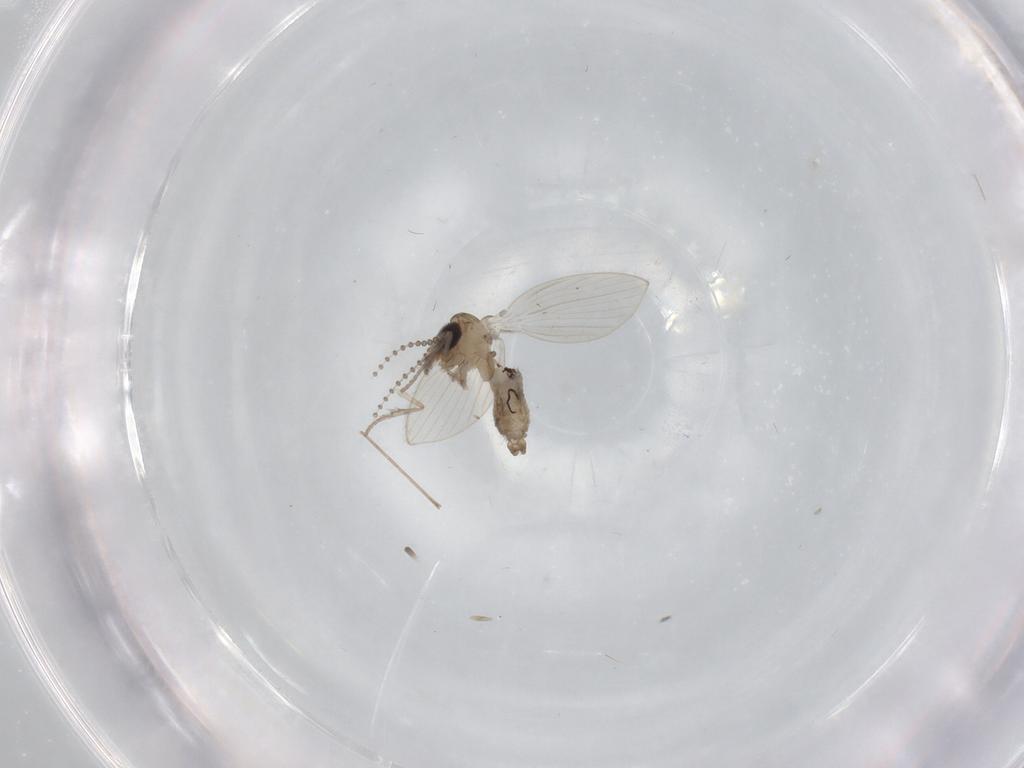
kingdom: Animalia
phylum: Arthropoda
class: Insecta
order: Diptera
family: Psychodidae
